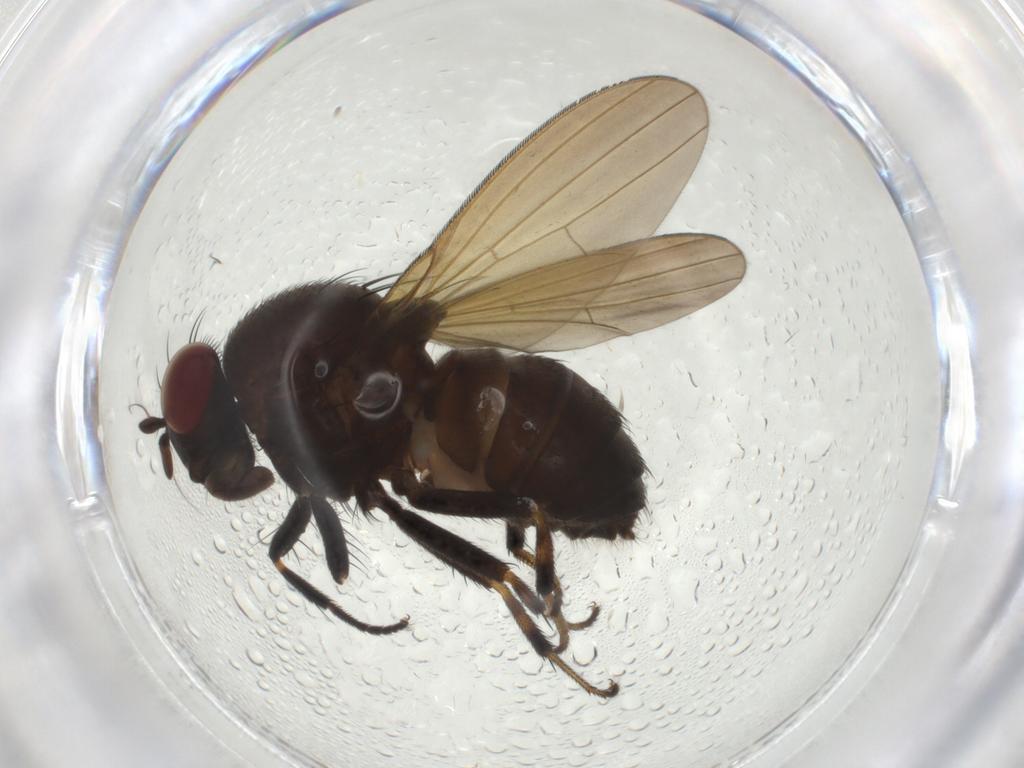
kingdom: Animalia
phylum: Arthropoda
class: Insecta
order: Diptera
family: Lauxaniidae
